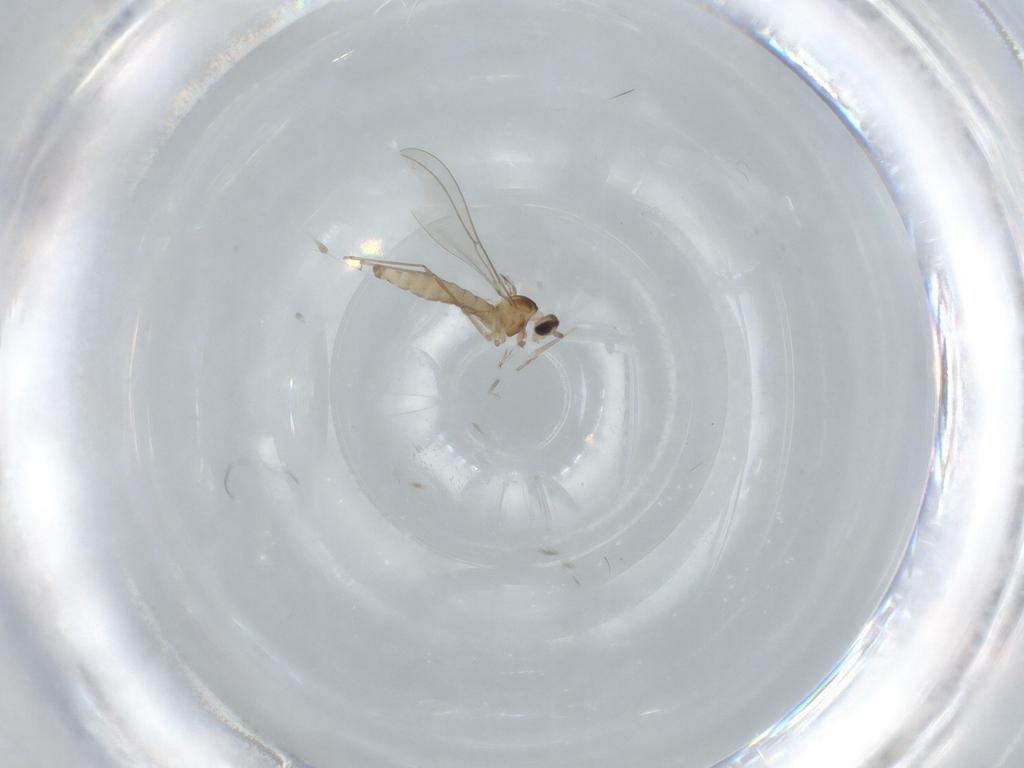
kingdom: Animalia
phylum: Arthropoda
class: Insecta
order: Diptera
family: Cecidomyiidae
